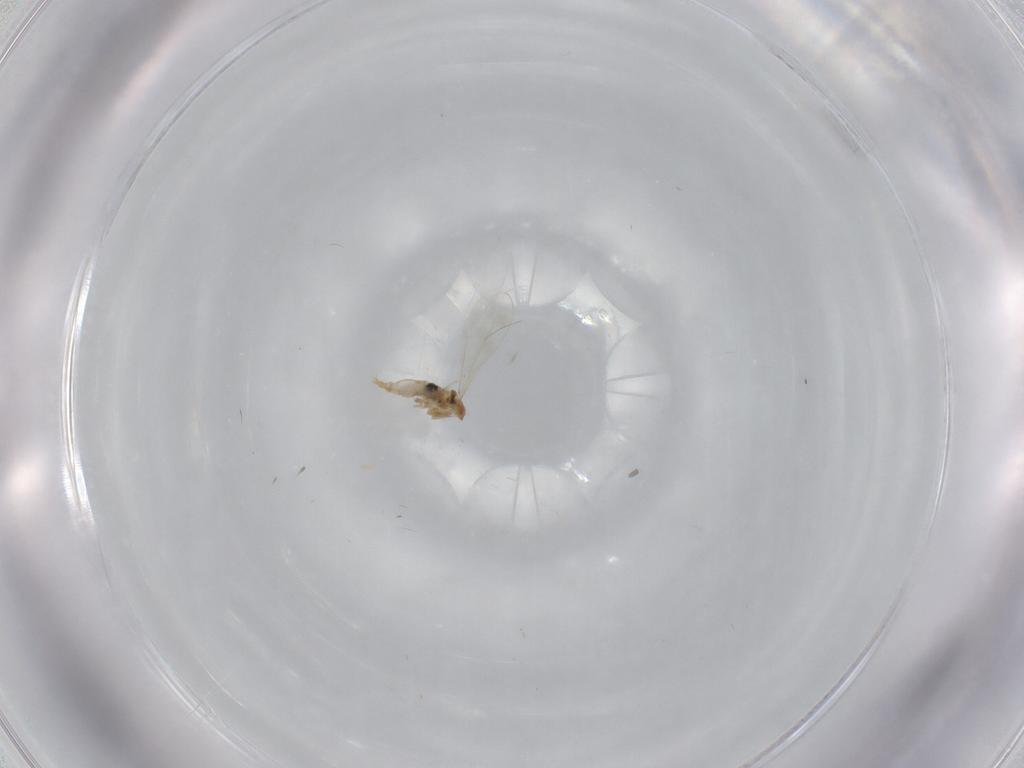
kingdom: Animalia
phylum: Arthropoda
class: Insecta
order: Diptera
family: Cecidomyiidae
